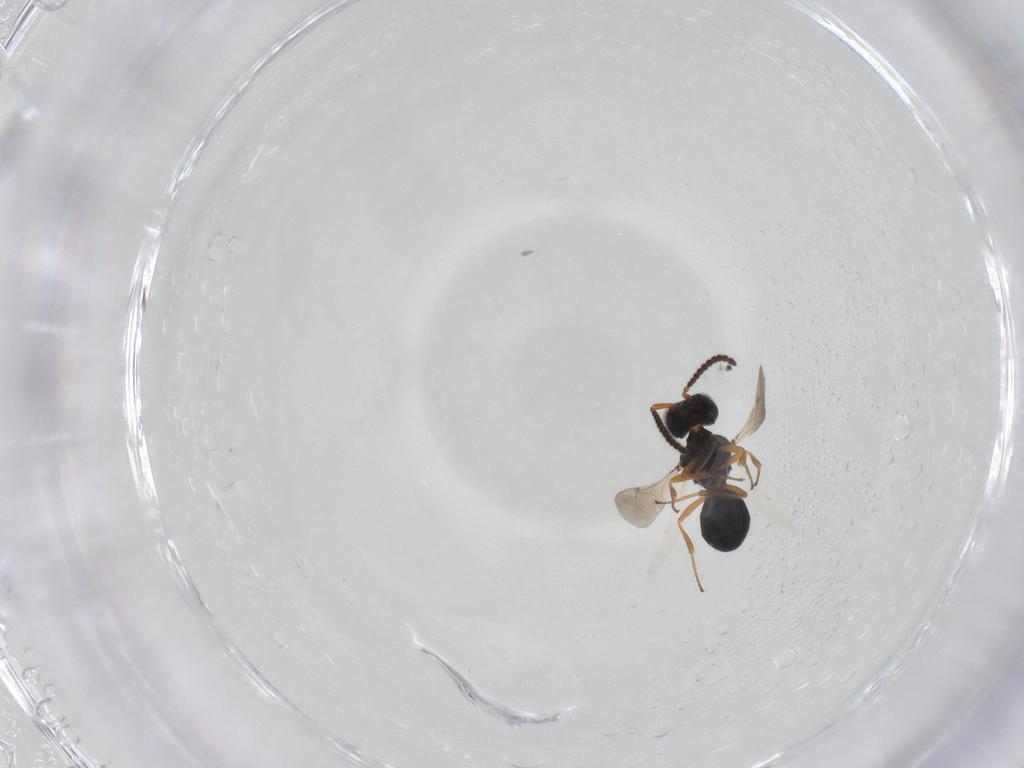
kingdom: Animalia
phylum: Arthropoda
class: Insecta
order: Hymenoptera
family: Scelionidae
